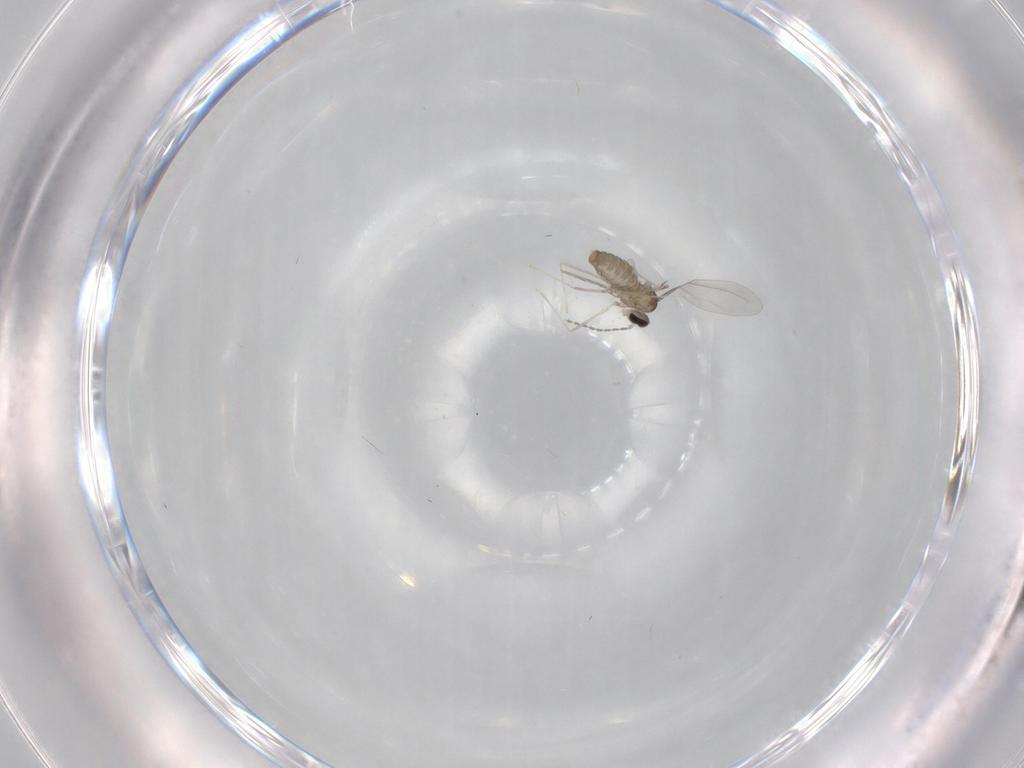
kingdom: Animalia
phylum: Arthropoda
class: Insecta
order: Diptera
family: Cecidomyiidae
